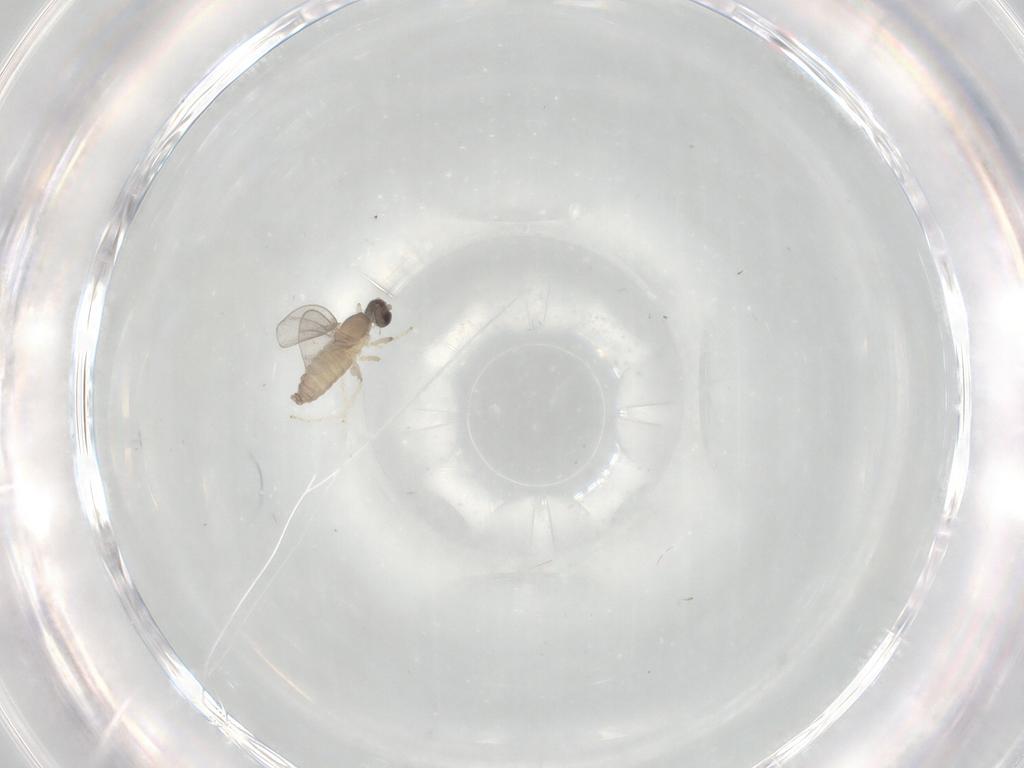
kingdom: Animalia
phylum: Arthropoda
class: Insecta
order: Diptera
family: Cecidomyiidae
